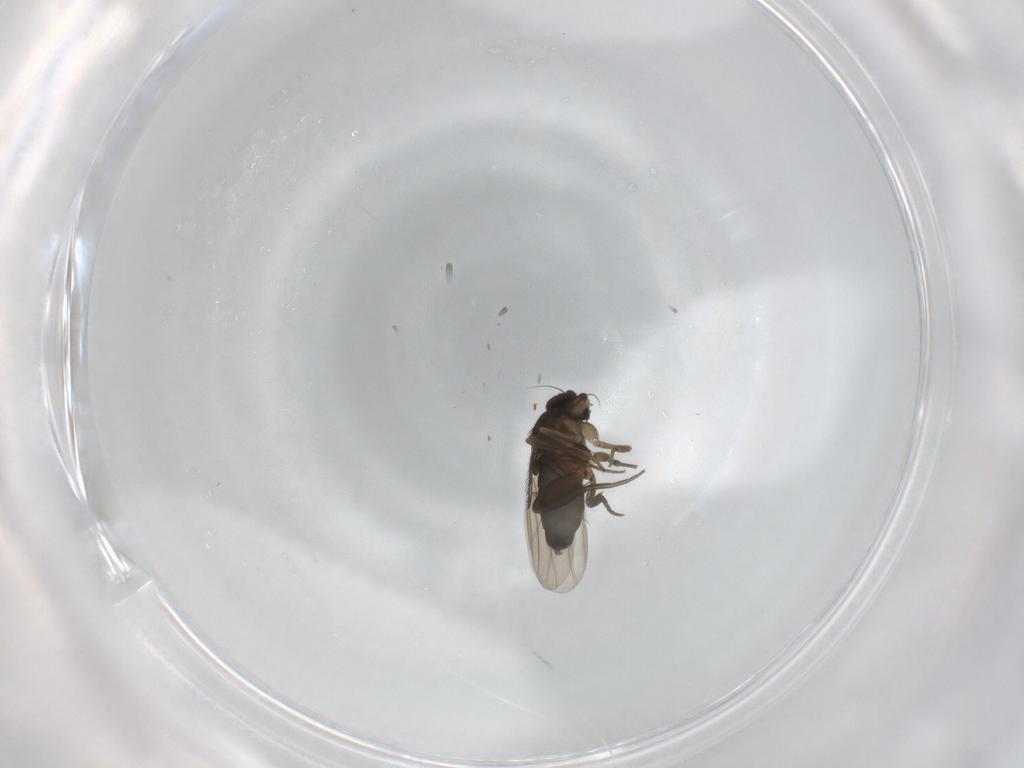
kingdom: Animalia
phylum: Arthropoda
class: Insecta
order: Diptera
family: Phoridae
